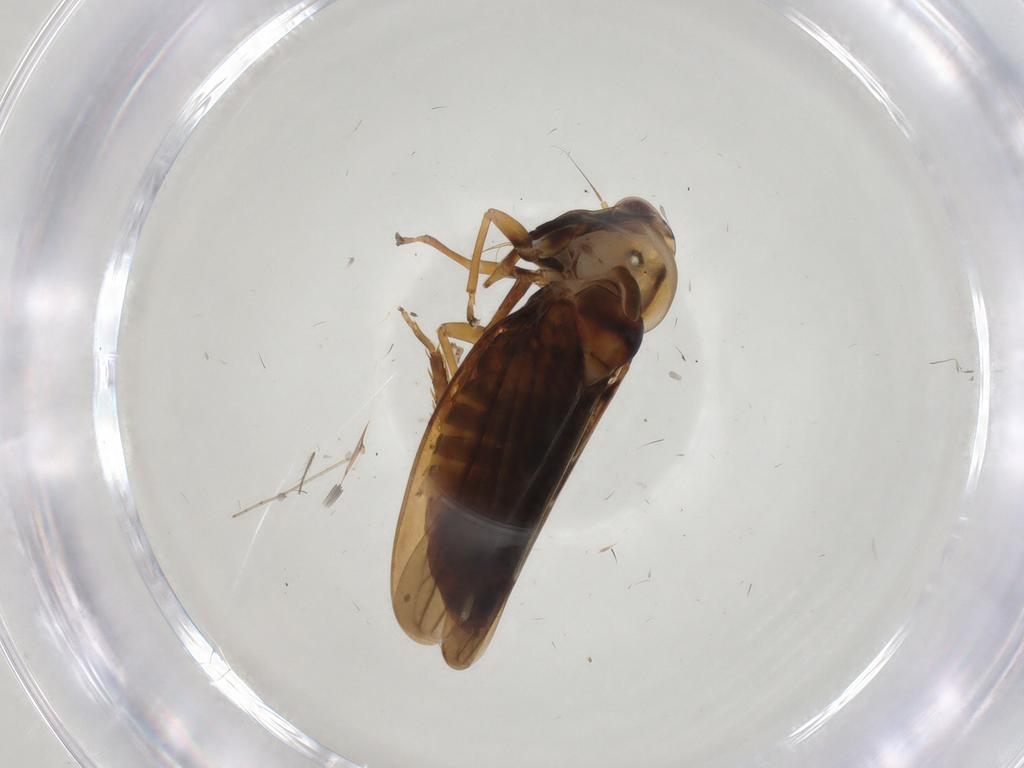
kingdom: Animalia
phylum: Arthropoda
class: Insecta
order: Hemiptera
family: Cicadellidae
